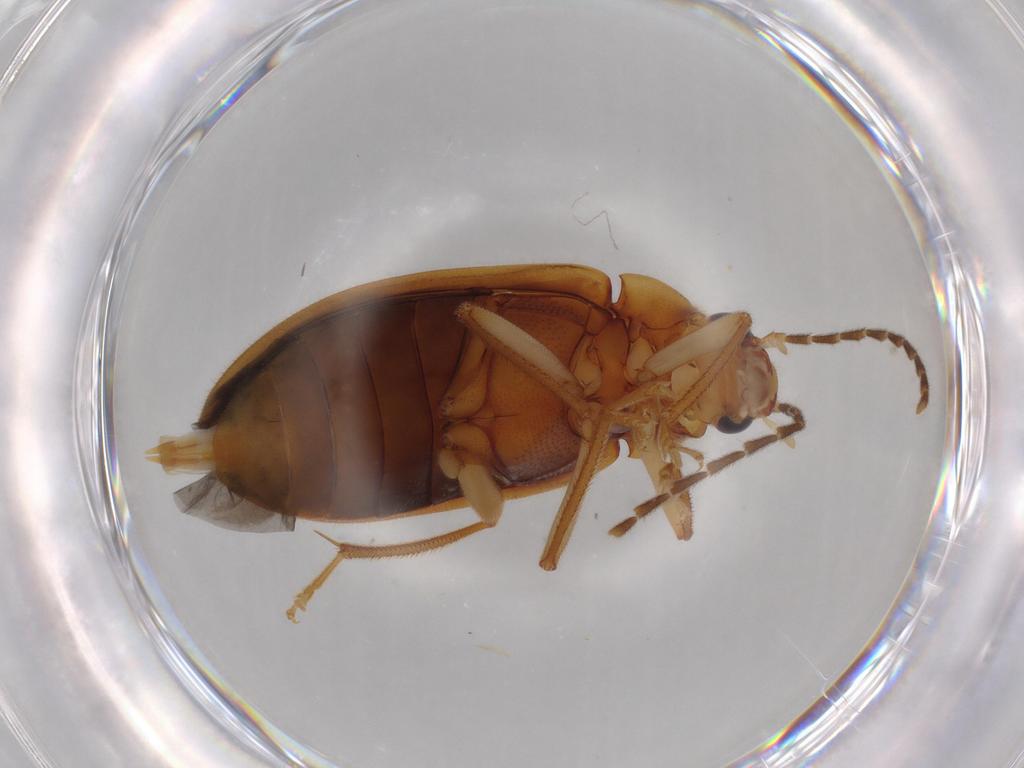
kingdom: Animalia
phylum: Arthropoda
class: Insecta
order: Coleoptera
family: Ptilodactylidae
